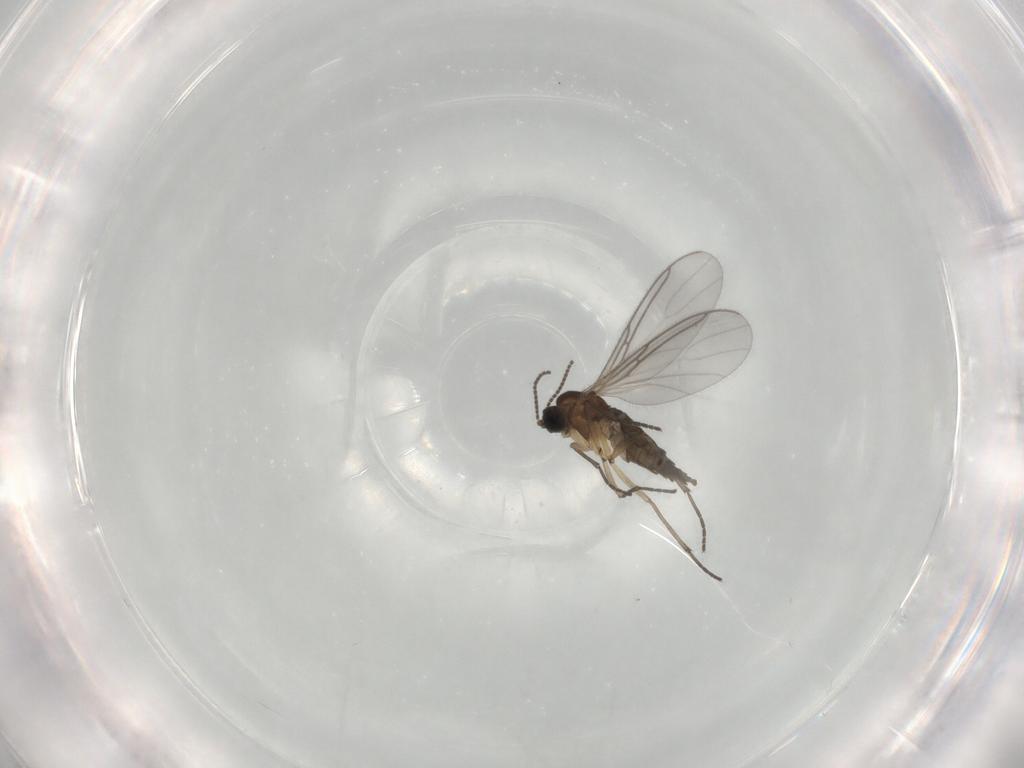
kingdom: Animalia
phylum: Arthropoda
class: Insecta
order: Diptera
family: Sciaridae
